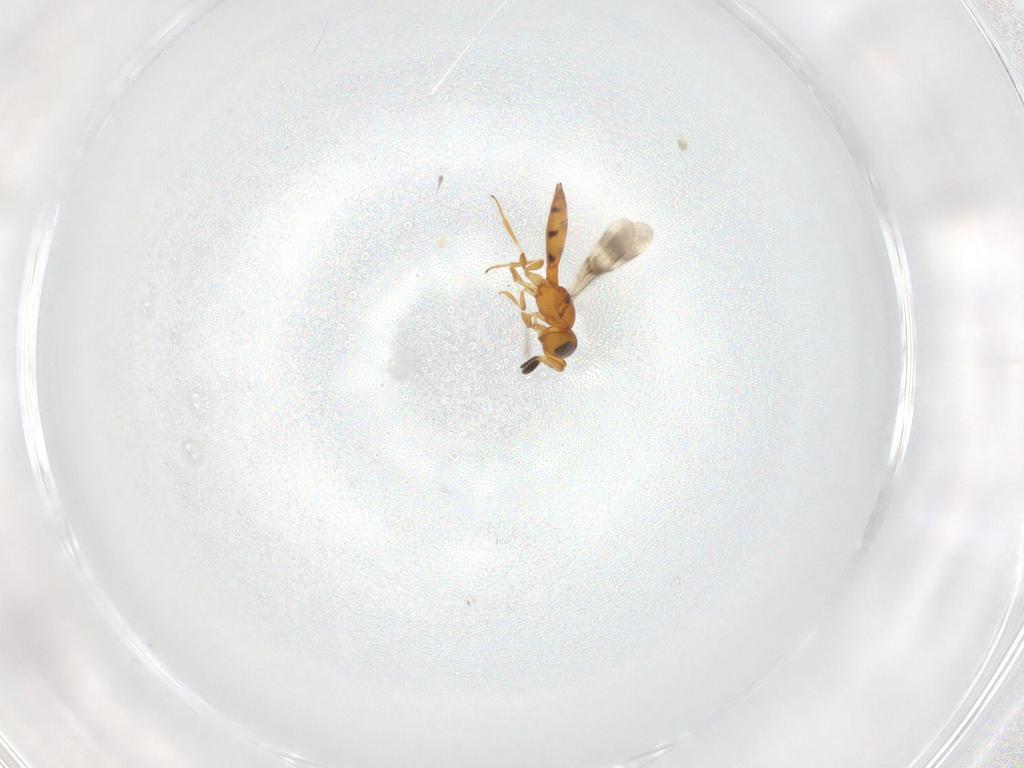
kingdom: Animalia
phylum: Arthropoda
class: Insecta
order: Hymenoptera
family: Scelionidae
